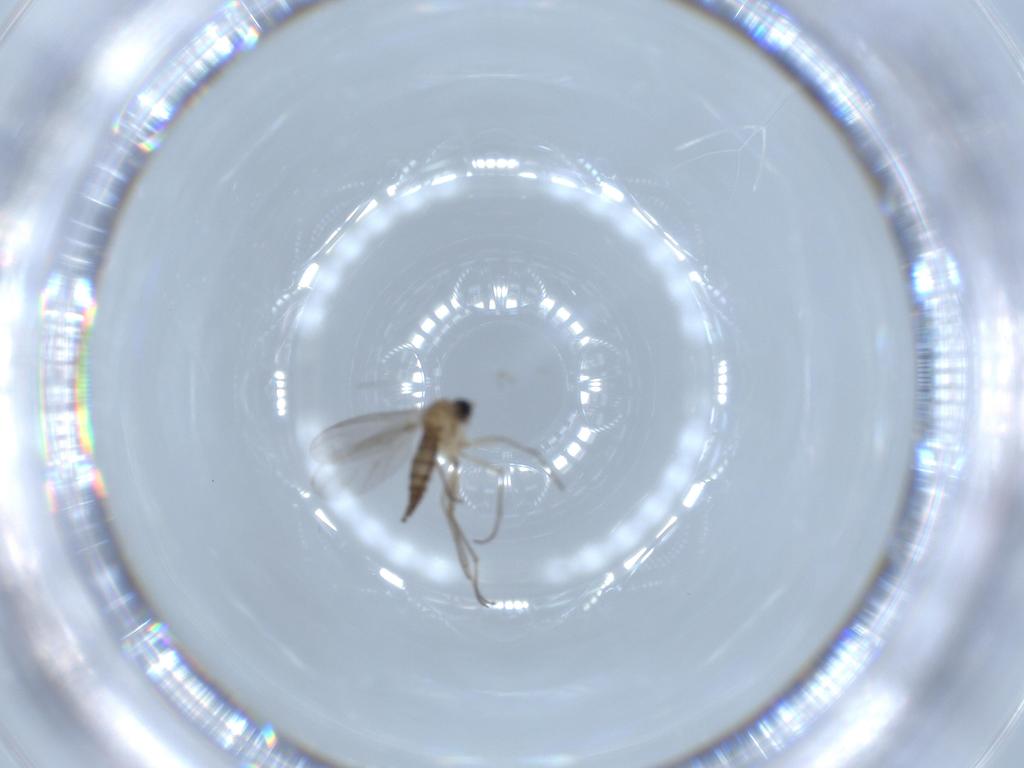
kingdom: Animalia
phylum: Arthropoda
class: Insecta
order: Diptera
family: Sciaridae
